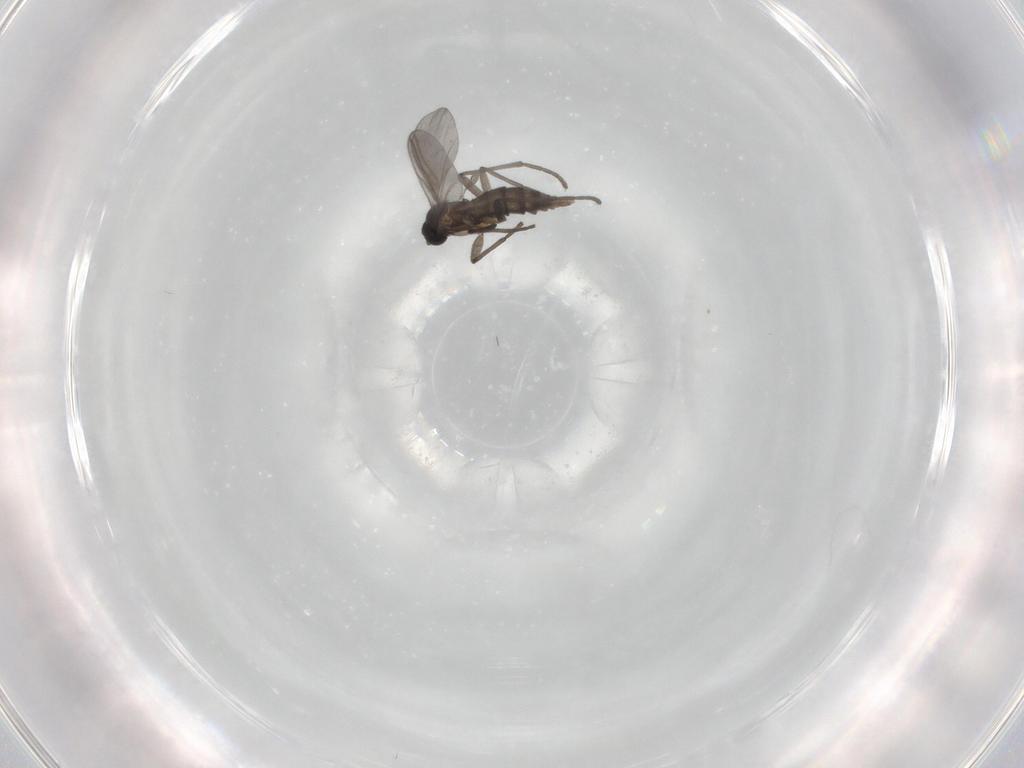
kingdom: Animalia
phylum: Arthropoda
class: Insecta
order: Diptera
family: Sciaridae
